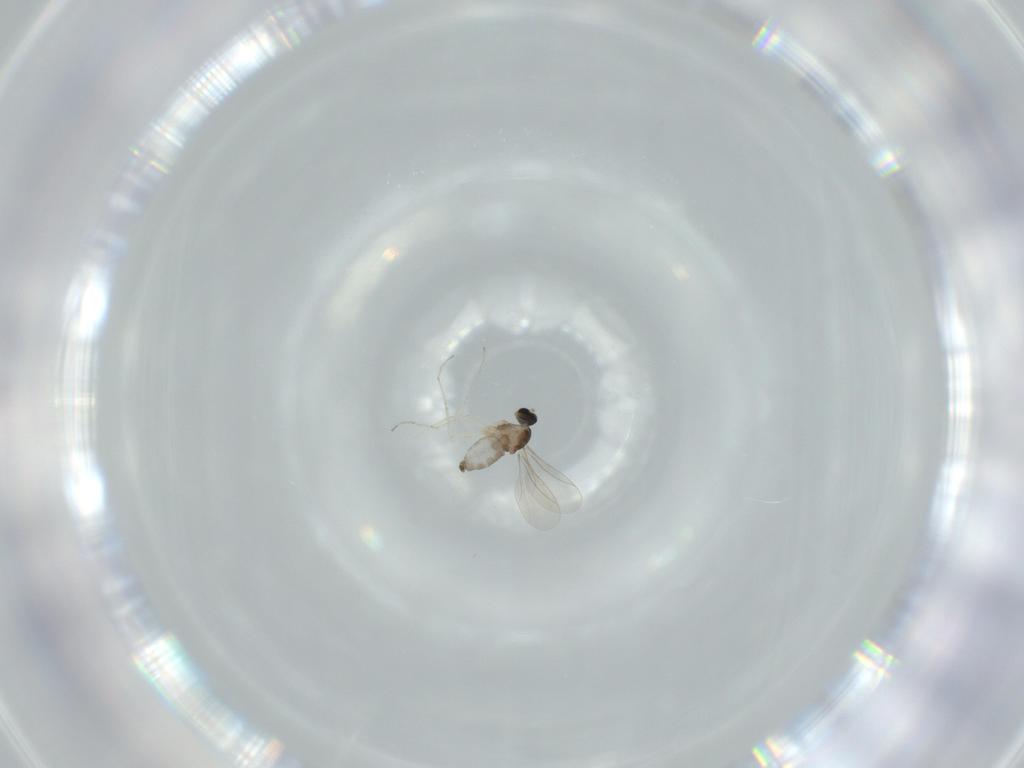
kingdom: Animalia
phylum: Arthropoda
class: Insecta
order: Diptera
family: Cecidomyiidae
